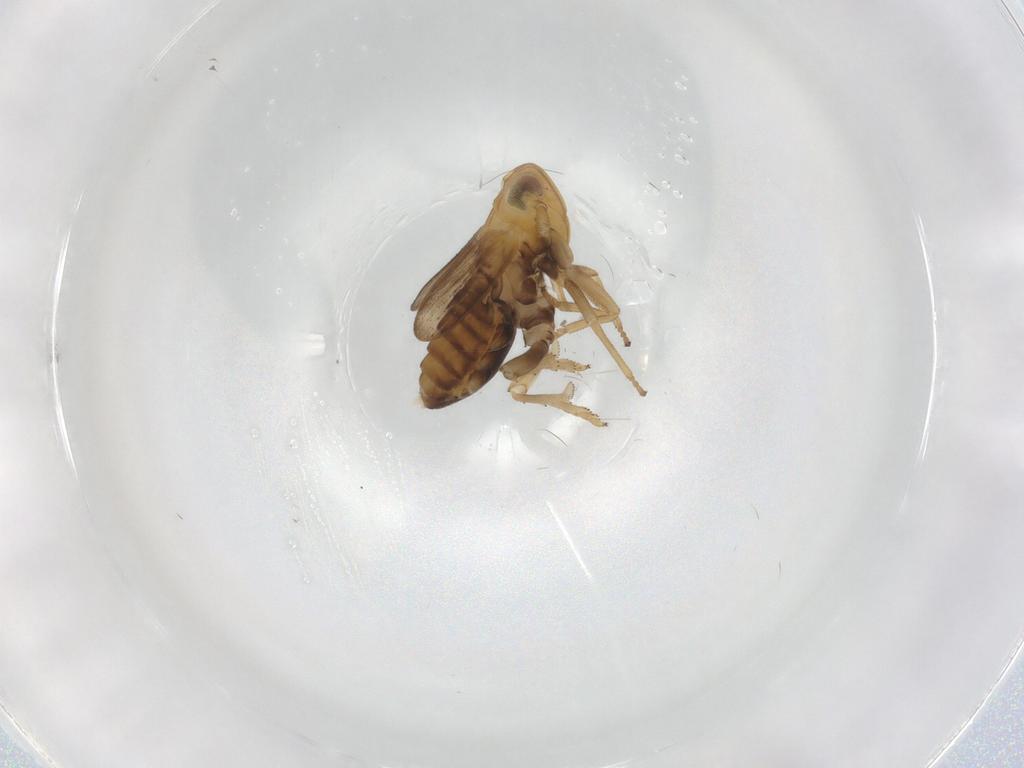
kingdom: Animalia
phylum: Arthropoda
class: Insecta
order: Hemiptera
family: Delphacidae
